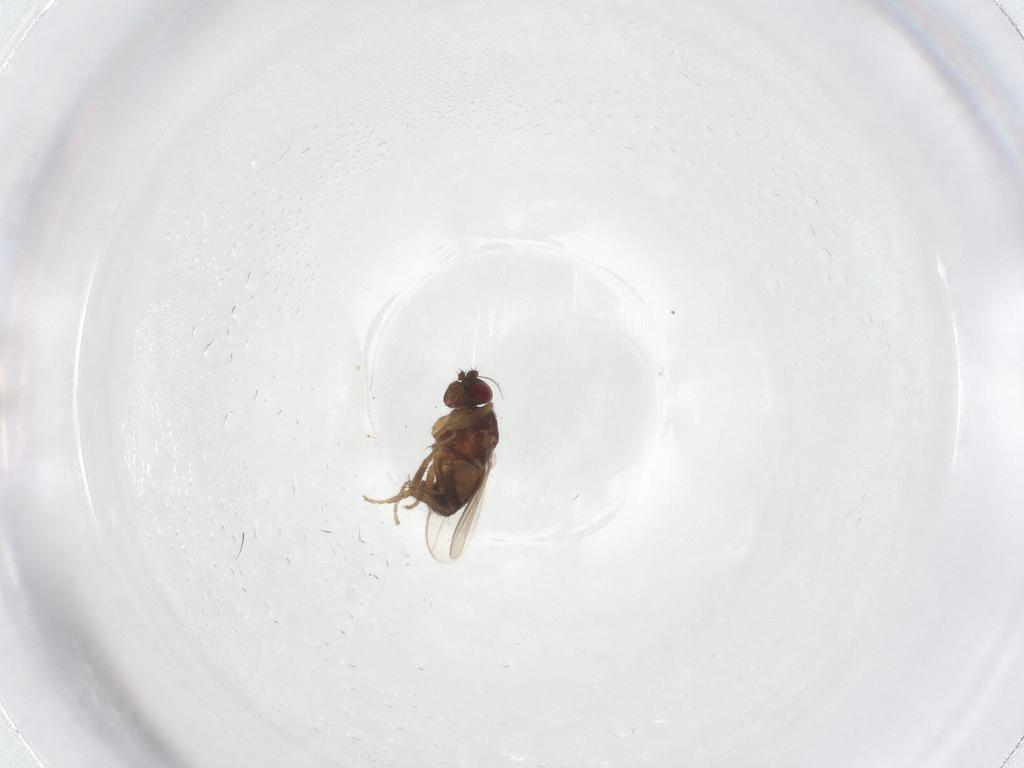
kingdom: Animalia
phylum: Arthropoda
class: Insecta
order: Diptera
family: Sphaeroceridae
